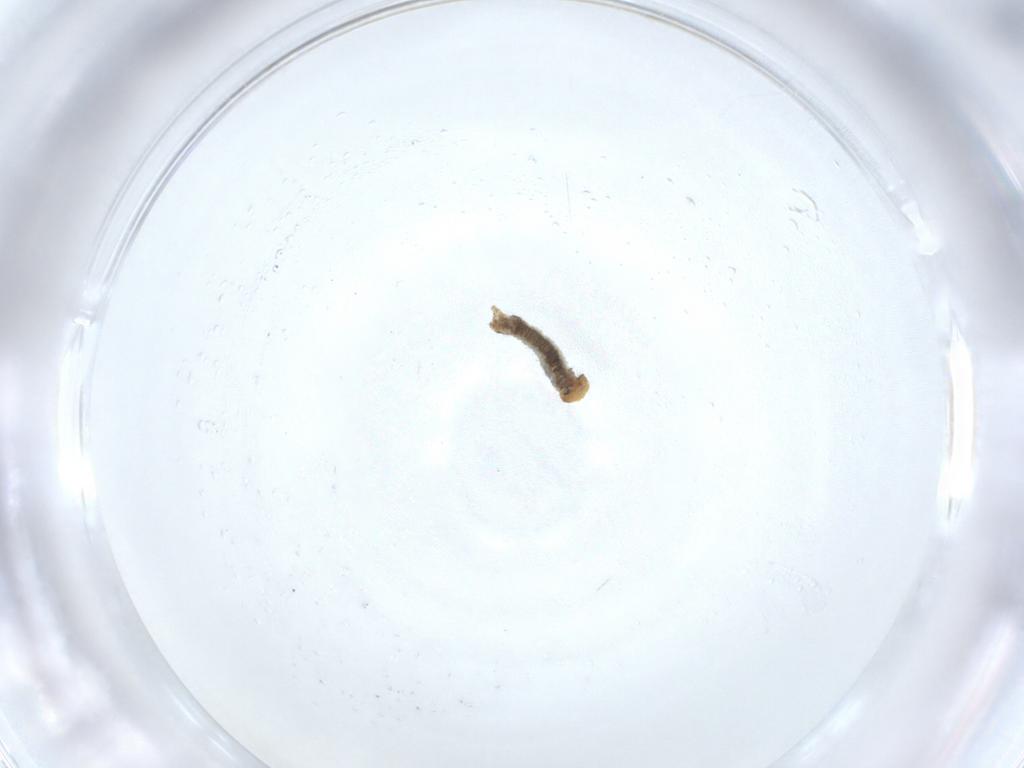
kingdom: Animalia
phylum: Arthropoda
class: Insecta
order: Lepidoptera
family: Geometridae
